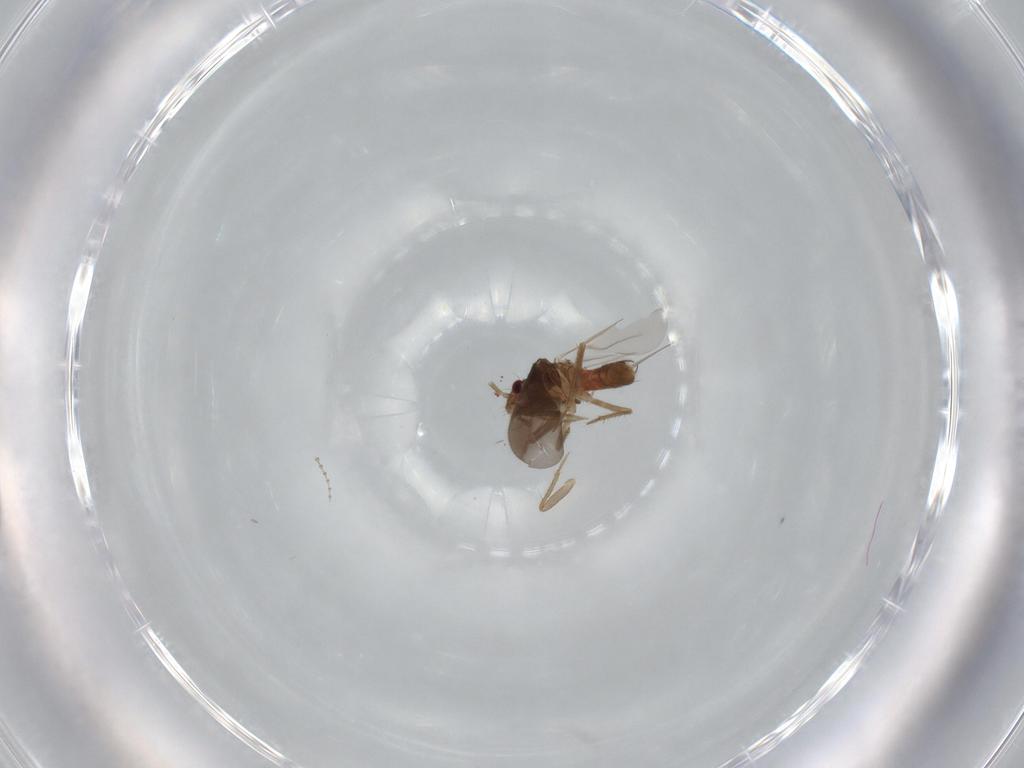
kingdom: Animalia
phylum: Arthropoda
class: Insecta
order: Hemiptera
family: Ceratocombidae
